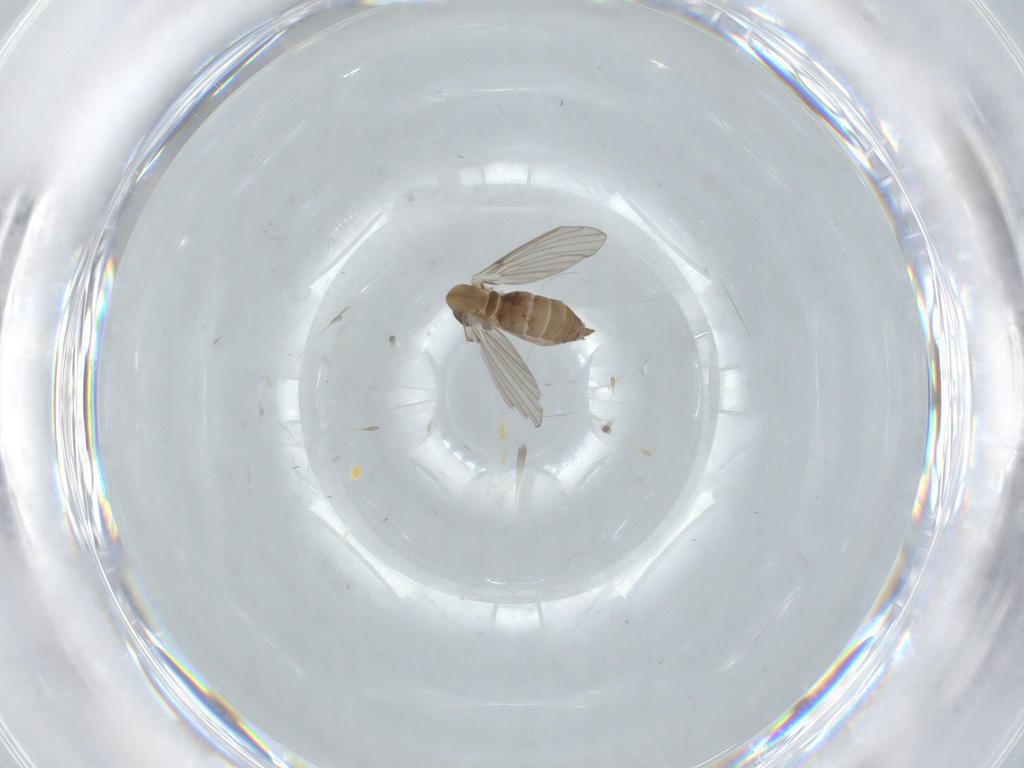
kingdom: Animalia
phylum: Arthropoda
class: Insecta
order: Diptera
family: Psychodidae
